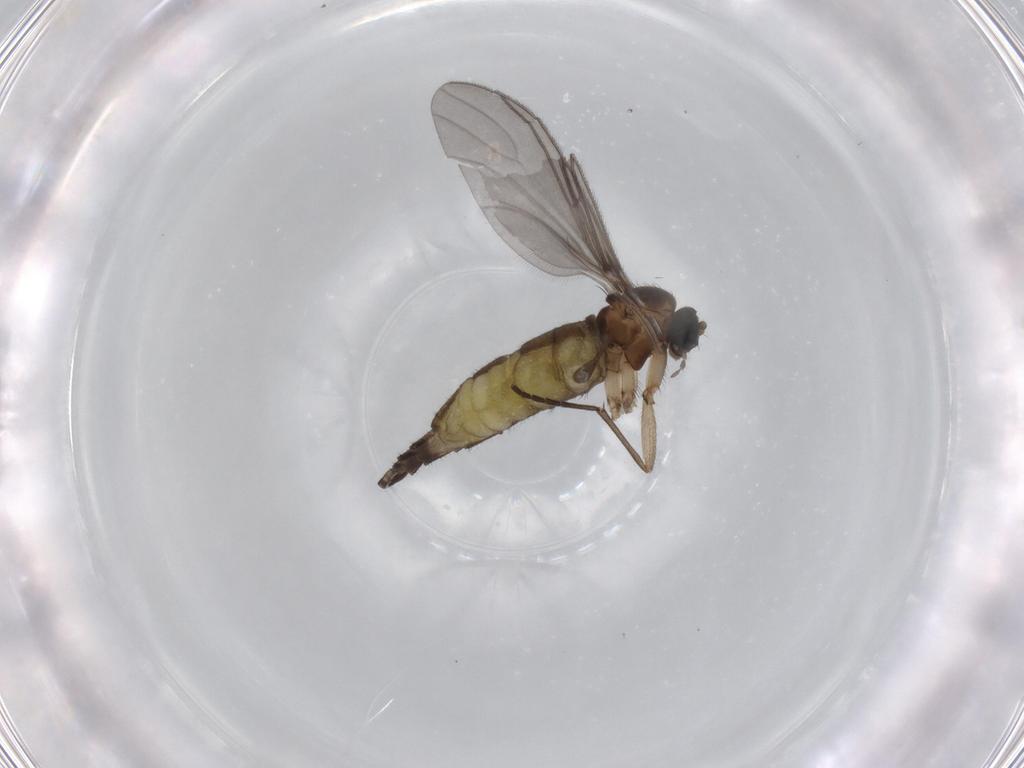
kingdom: Animalia
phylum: Arthropoda
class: Insecta
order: Diptera
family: Sciaridae
